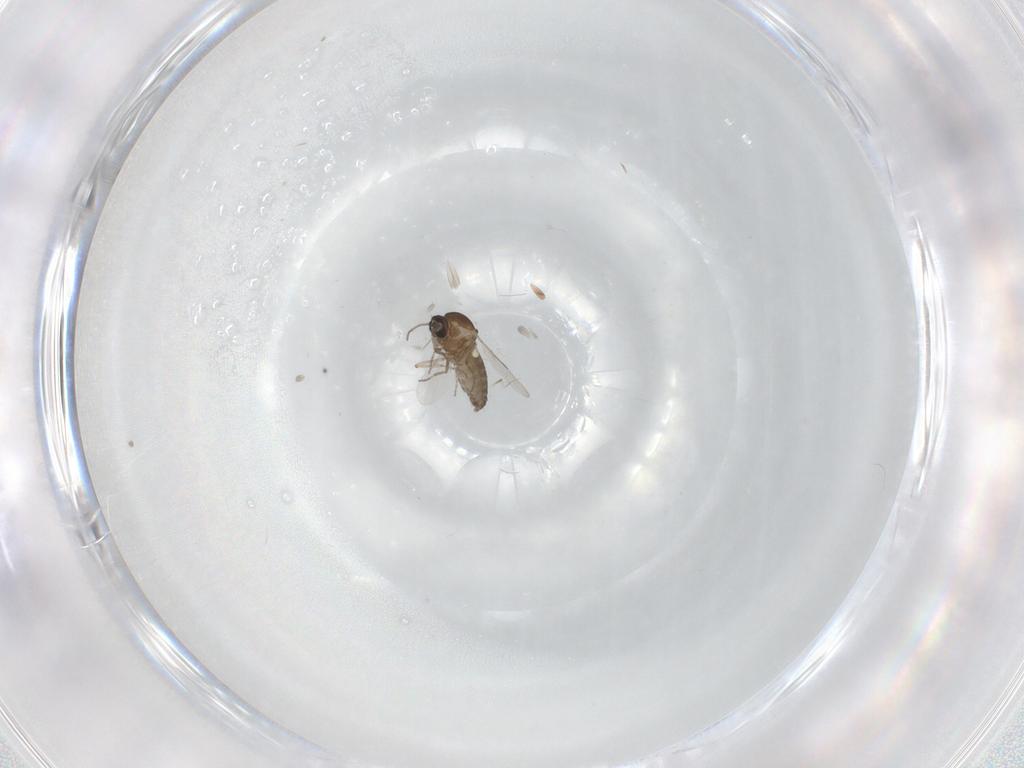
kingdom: Animalia
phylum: Arthropoda
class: Insecta
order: Diptera
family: Ceratopogonidae
